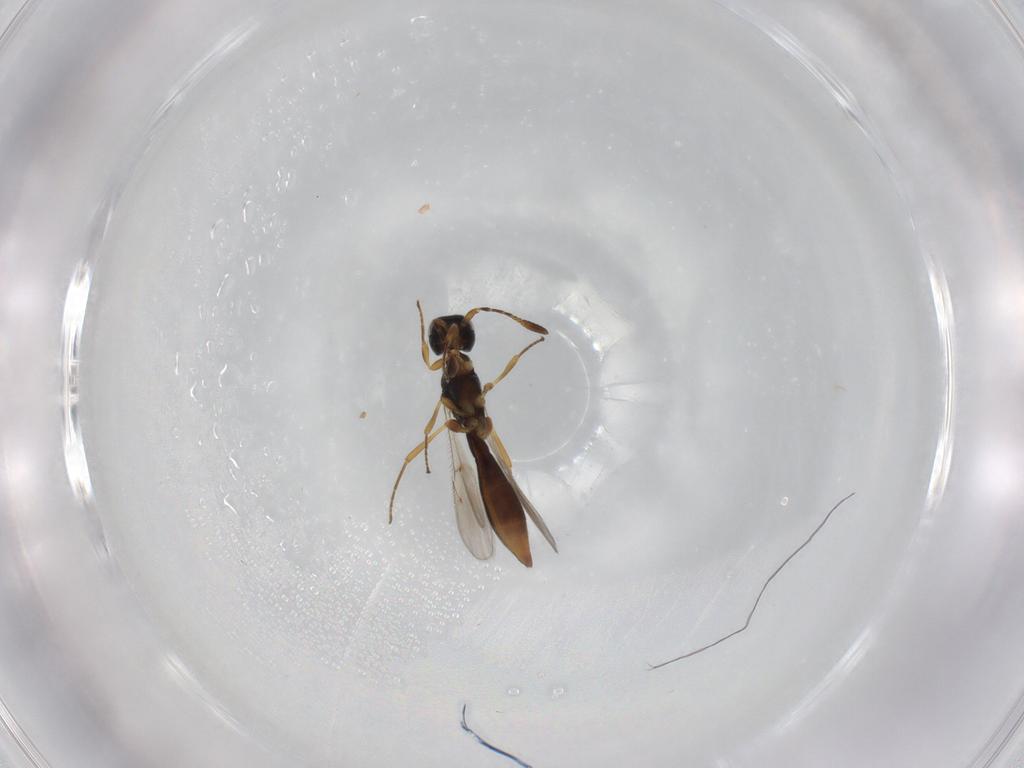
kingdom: Animalia
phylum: Arthropoda
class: Insecta
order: Hymenoptera
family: Scelionidae
